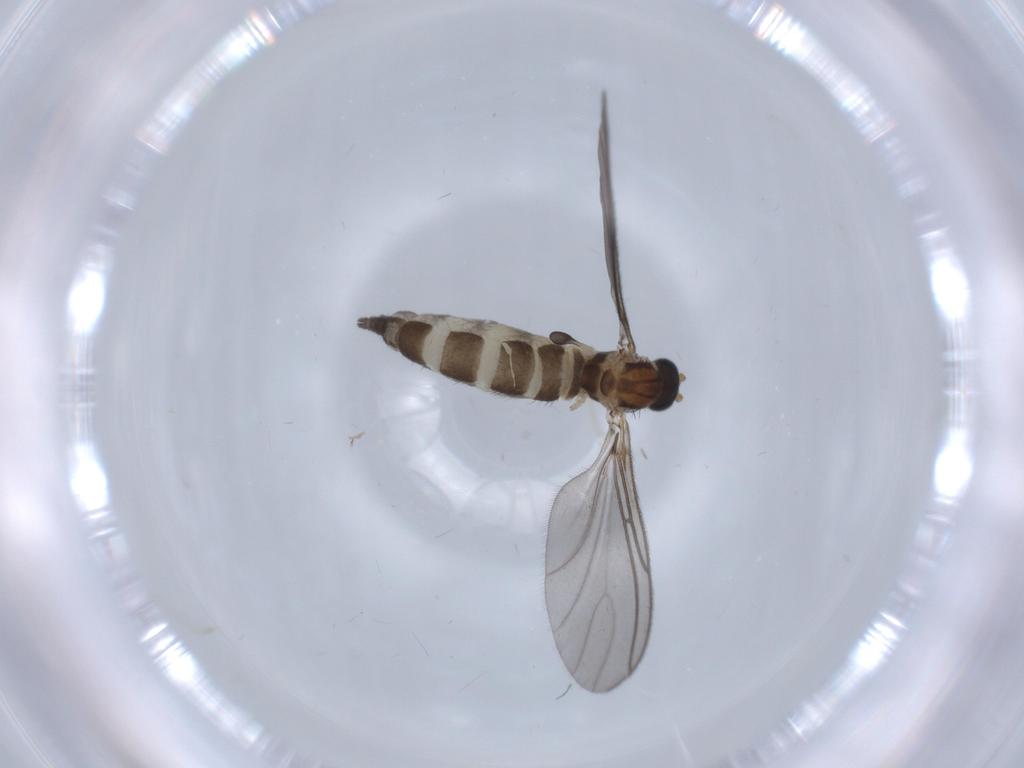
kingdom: Animalia
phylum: Arthropoda
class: Insecta
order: Diptera
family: Sciaridae
